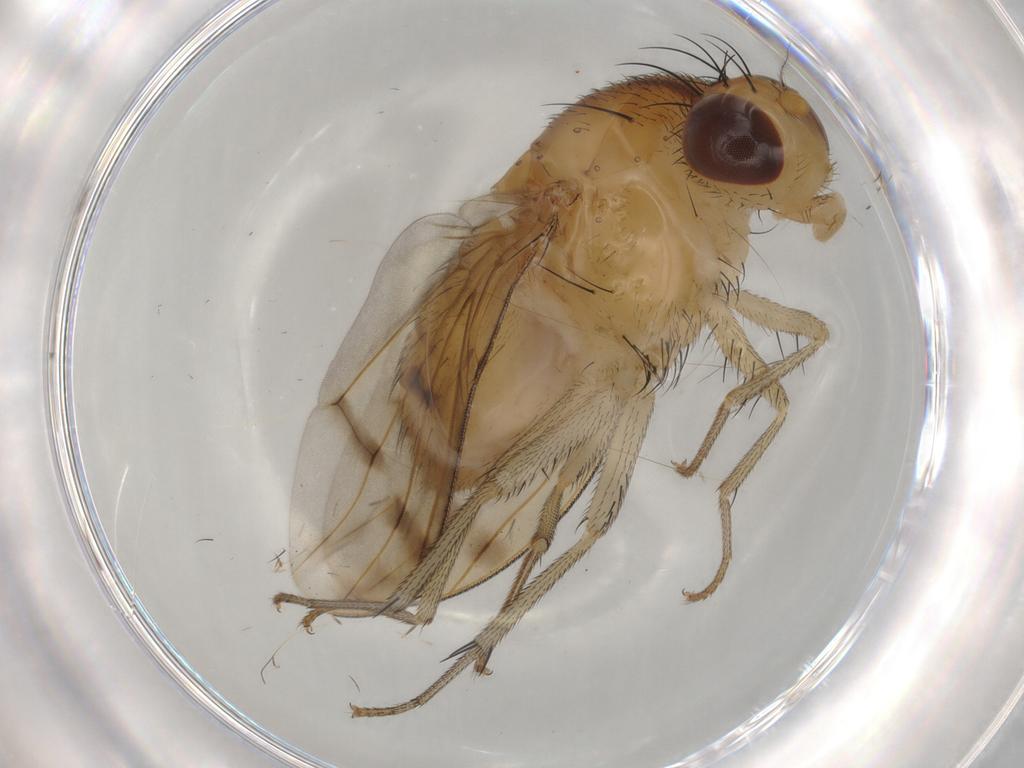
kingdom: Animalia
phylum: Arthropoda
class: Insecta
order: Diptera
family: Lauxaniidae
